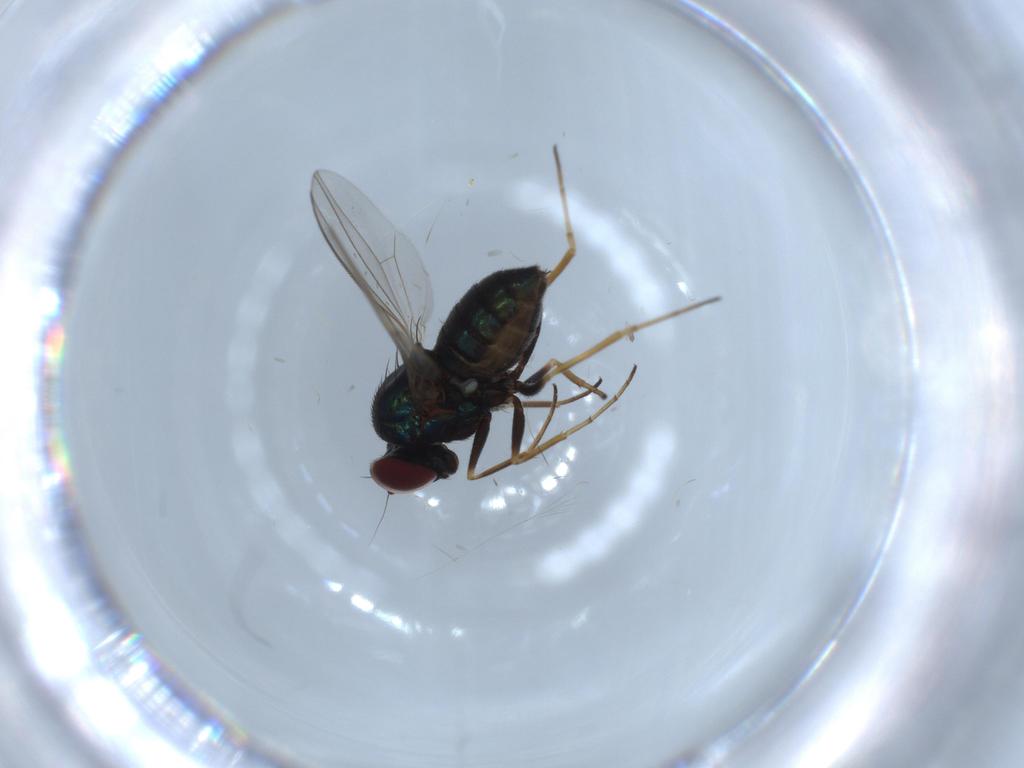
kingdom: Animalia
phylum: Arthropoda
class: Insecta
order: Diptera
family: Dolichopodidae
